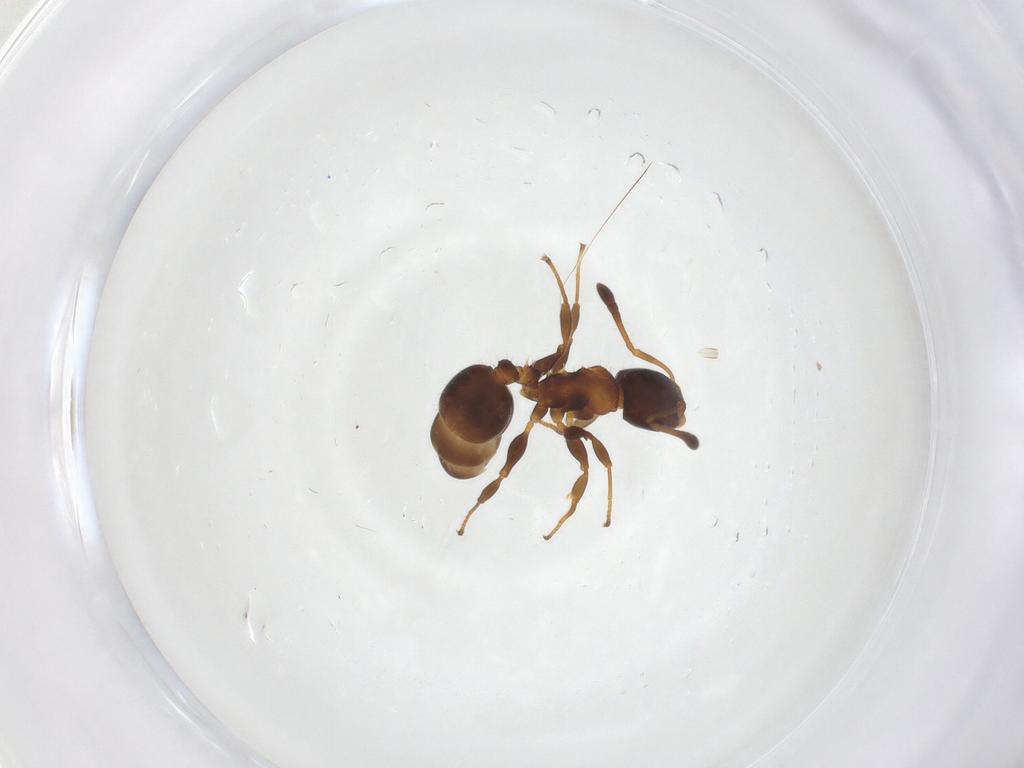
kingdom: Animalia
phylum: Arthropoda
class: Insecta
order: Hymenoptera
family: Formicidae
